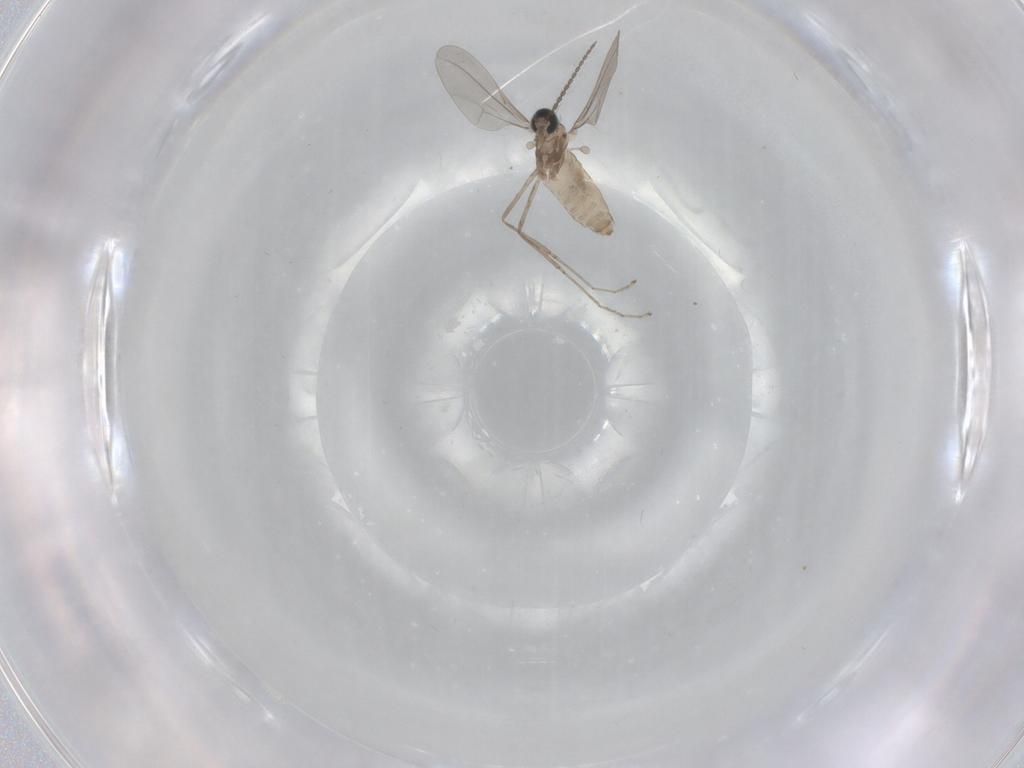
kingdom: Animalia
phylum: Arthropoda
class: Insecta
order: Diptera
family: Cecidomyiidae
